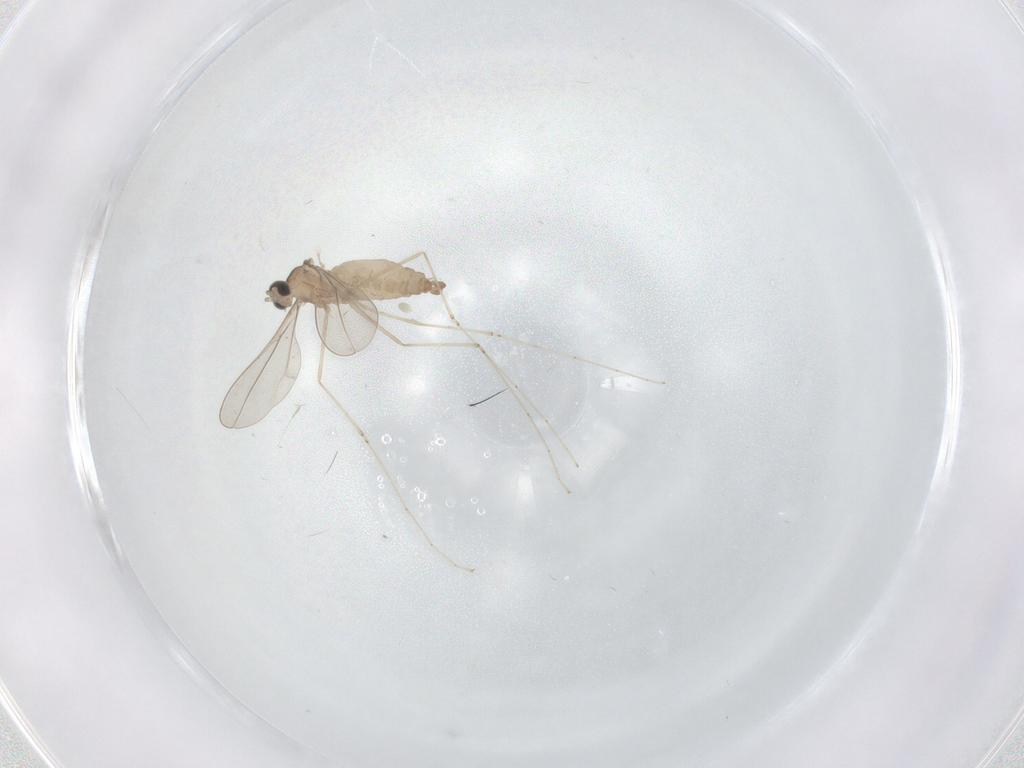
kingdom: Animalia
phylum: Arthropoda
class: Insecta
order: Diptera
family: Cecidomyiidae
